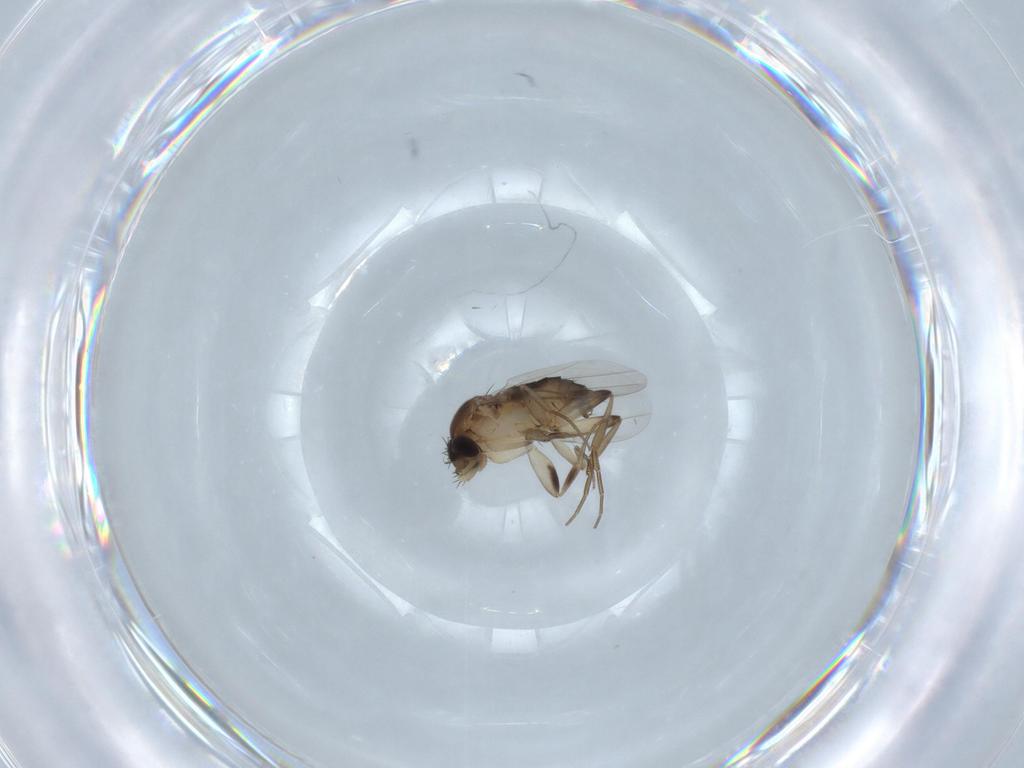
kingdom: Animalia
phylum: Arthropoda
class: Insecta
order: Diptera
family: Phoridae
